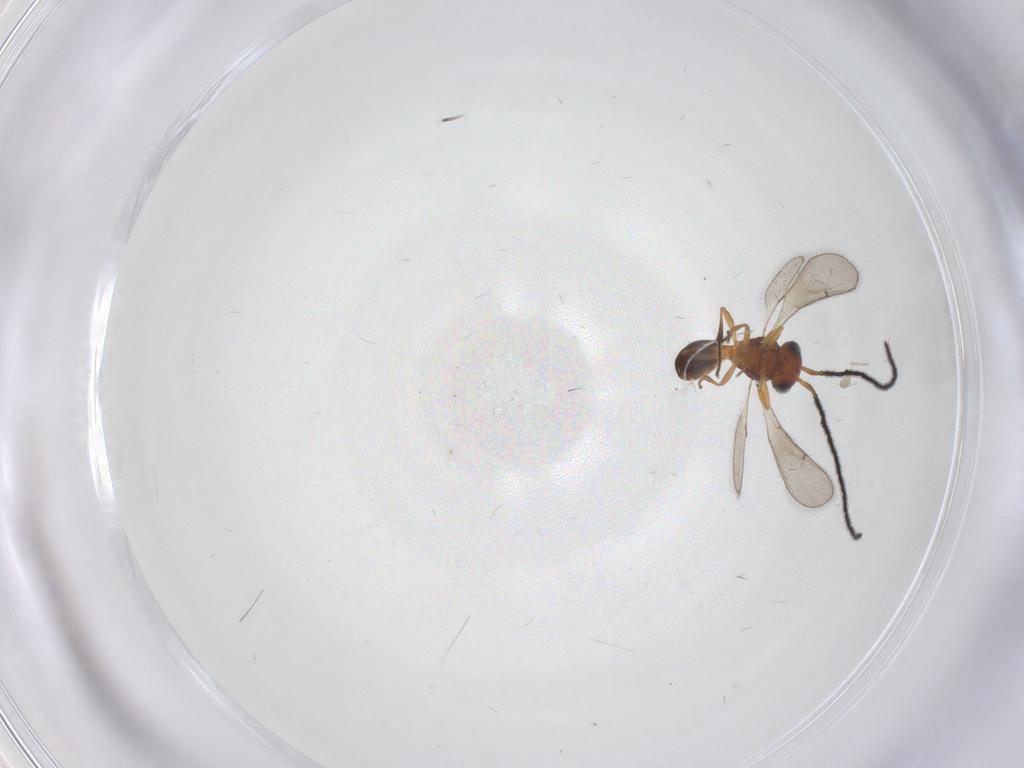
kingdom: Animalia
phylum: Arthropoda
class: Insecta
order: Hymenoptera
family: Scelionidae
